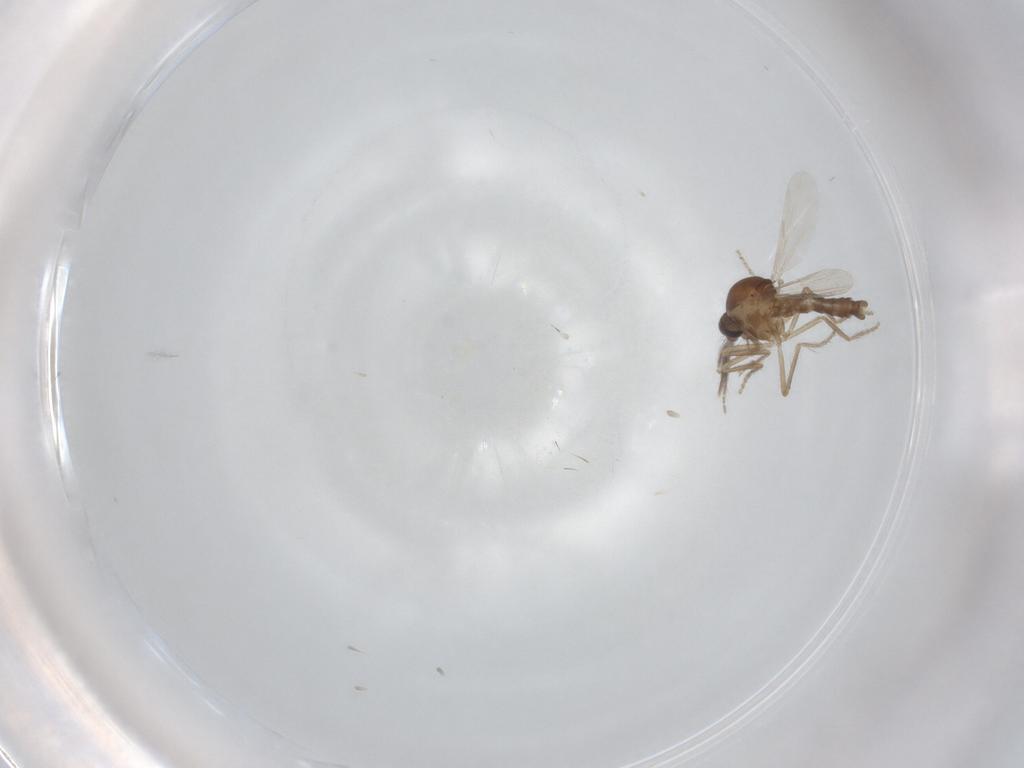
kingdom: Animalia
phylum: Arthropoda
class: Insecta
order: Diptera
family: Ceratopogonidae
